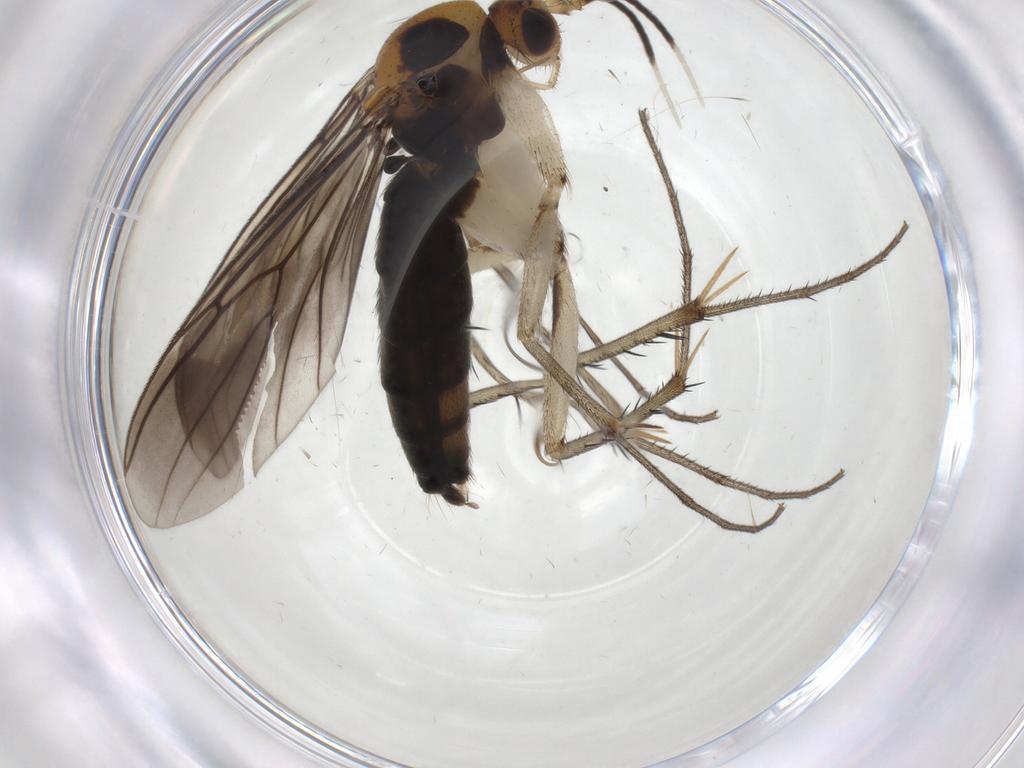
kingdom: Animalia
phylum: Arthropoda
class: Insecta
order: Diptera
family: Mycetophilidae
